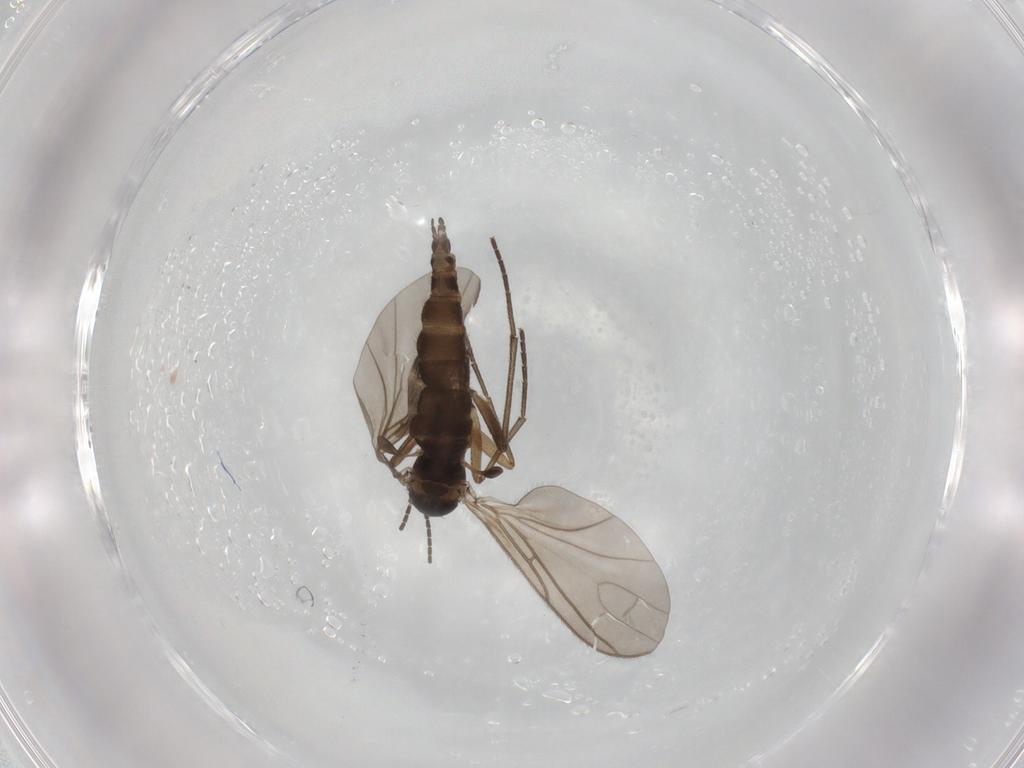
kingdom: Animalia
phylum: Arthropoda
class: Insecta
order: Diptera
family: Sciaridae
